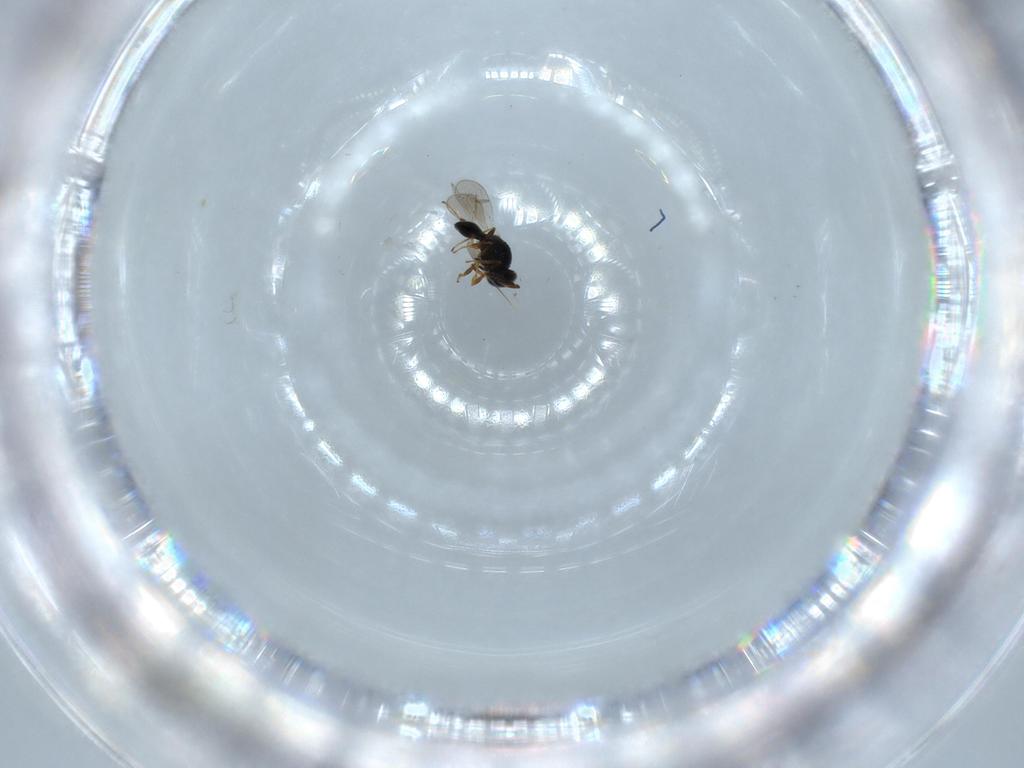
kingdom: Animalia
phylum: Arthropoda
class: Insecta
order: Hymenoptera
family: Platygastridae
